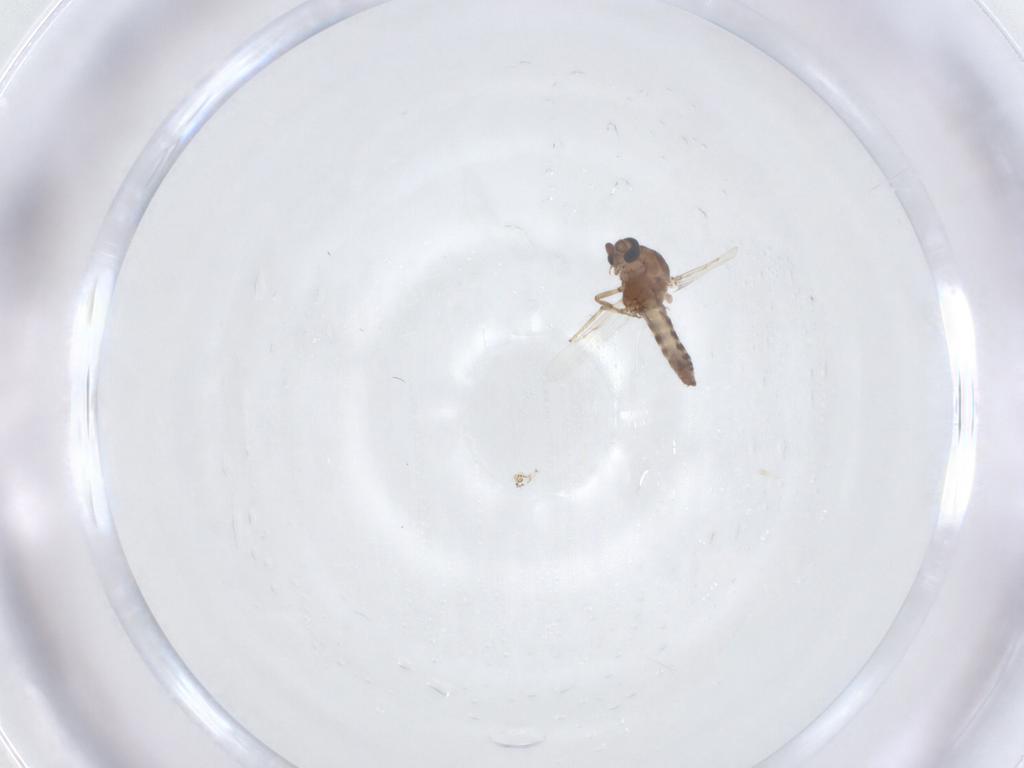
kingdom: Animalia
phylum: Arthropoda
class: Insecta
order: Diptera
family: Ceratopogonidae
